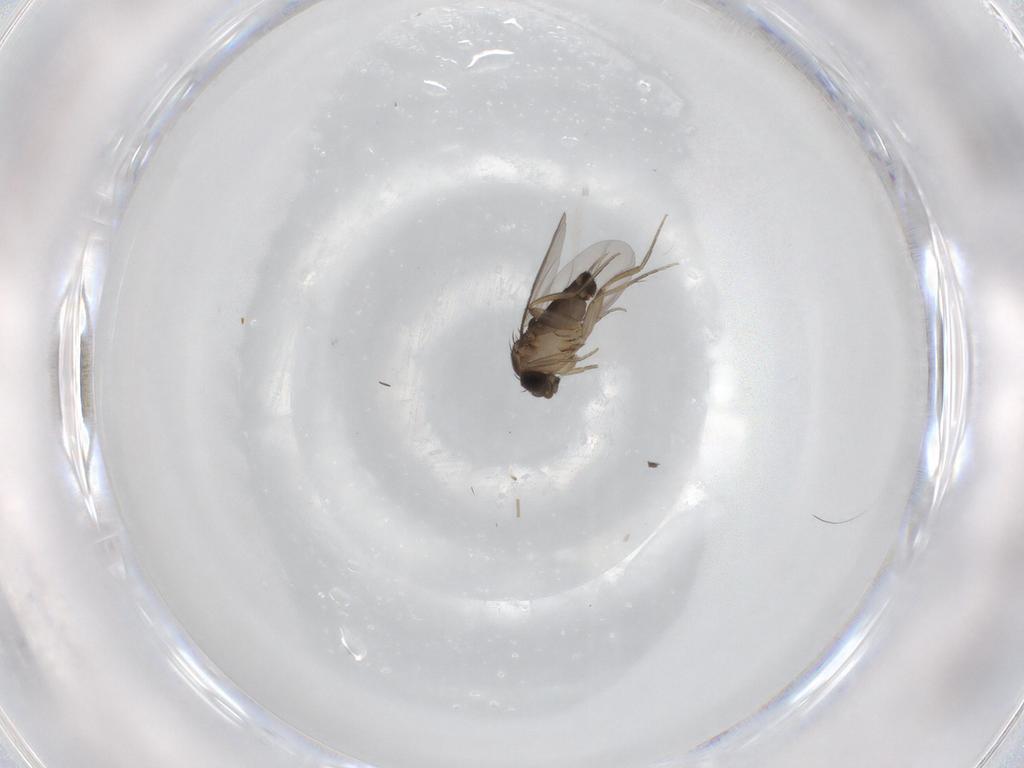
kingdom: Animalia
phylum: Arthropoda
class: Insecta
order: Diptera
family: Phoridae
